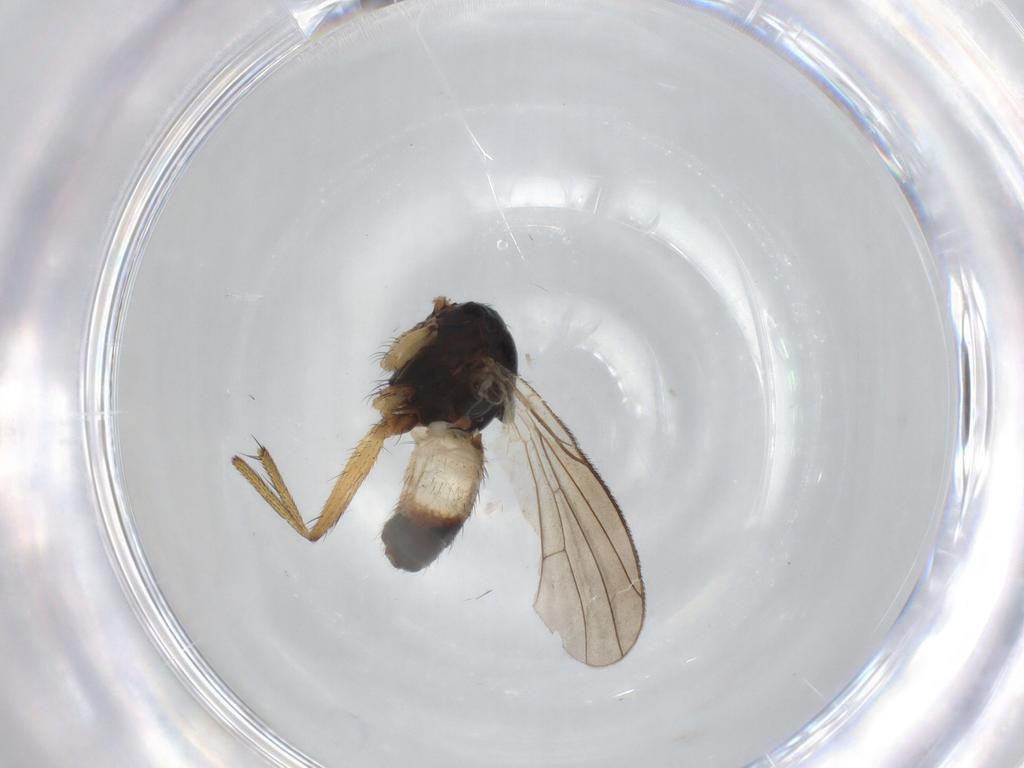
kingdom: Animalia
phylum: Arthropoda
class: Insecta
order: Diptera
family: Muscidae
